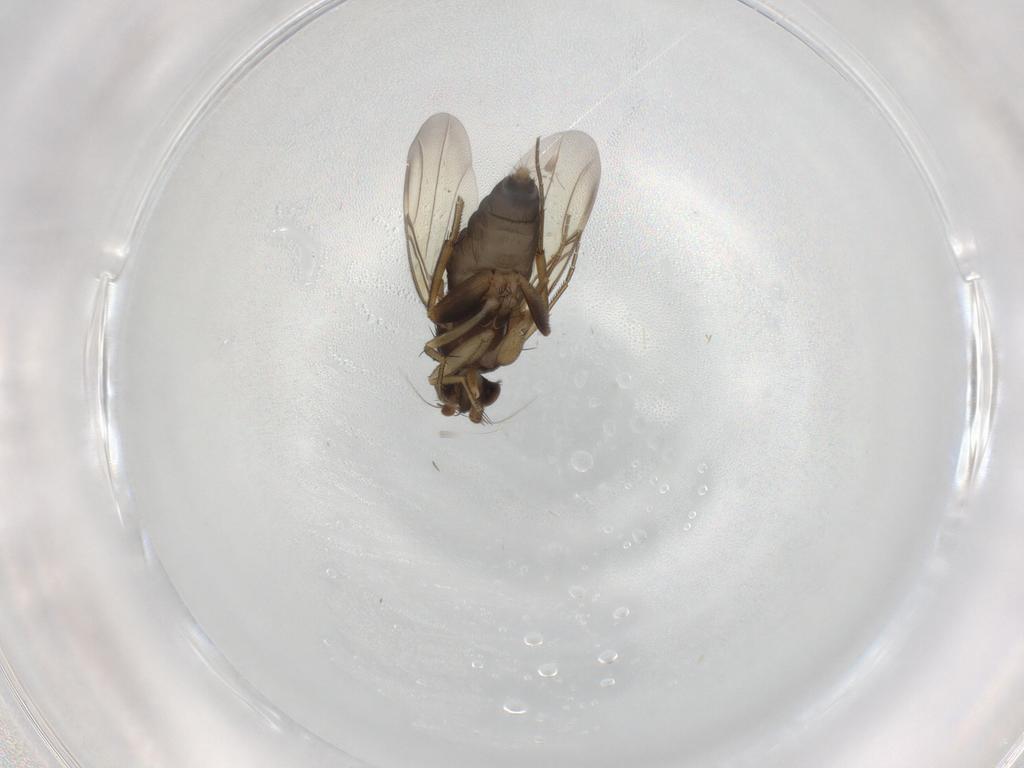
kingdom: Animalia
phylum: Arthropoda
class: Insecta
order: Diptera
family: Phoridae
